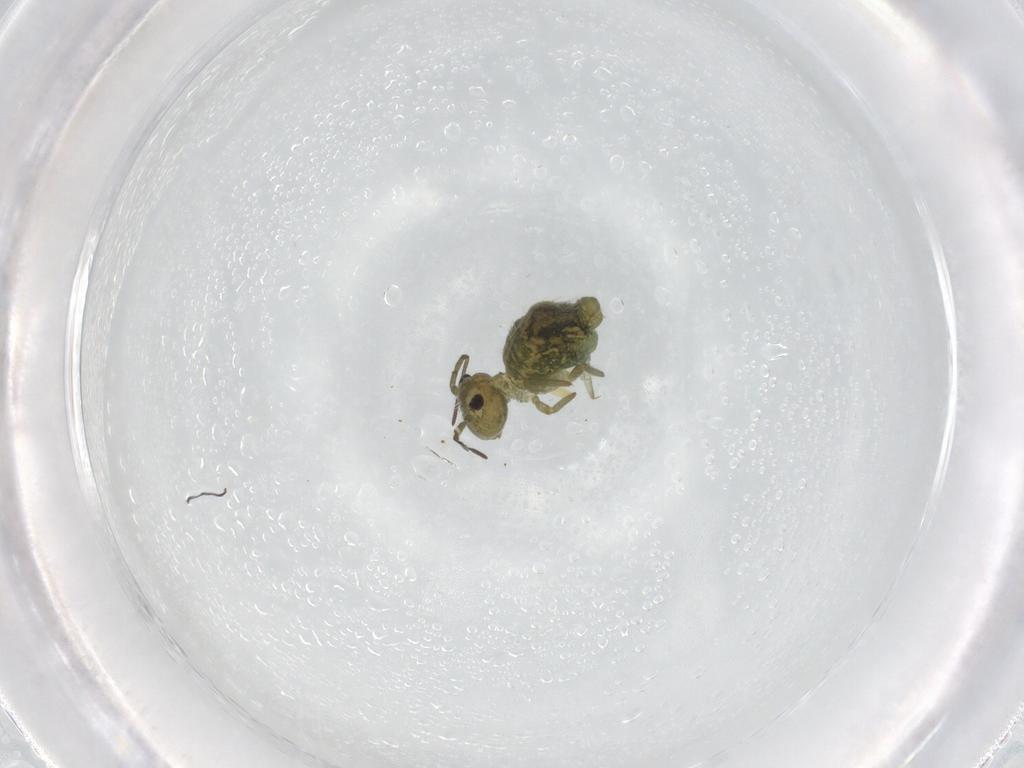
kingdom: Animalia
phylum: Arthropoda
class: Collembola
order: Symphypleona
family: Sminthuridae
